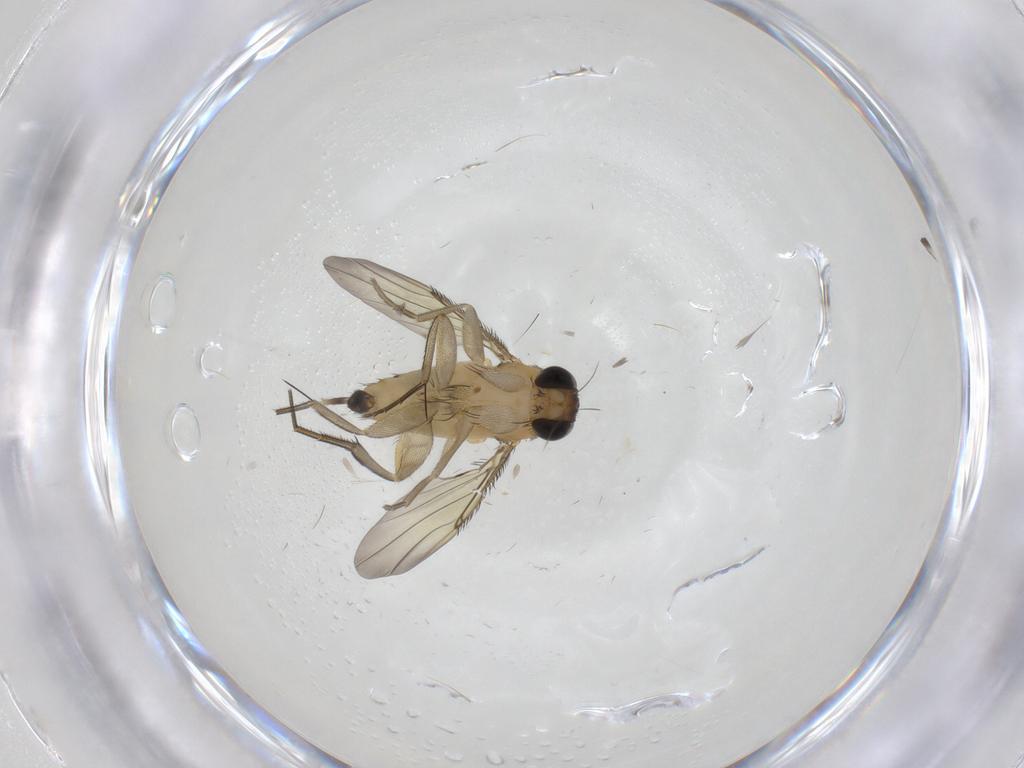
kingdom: Animalia
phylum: Arthropoda
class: Insecta
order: Diptera
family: Phoridae
